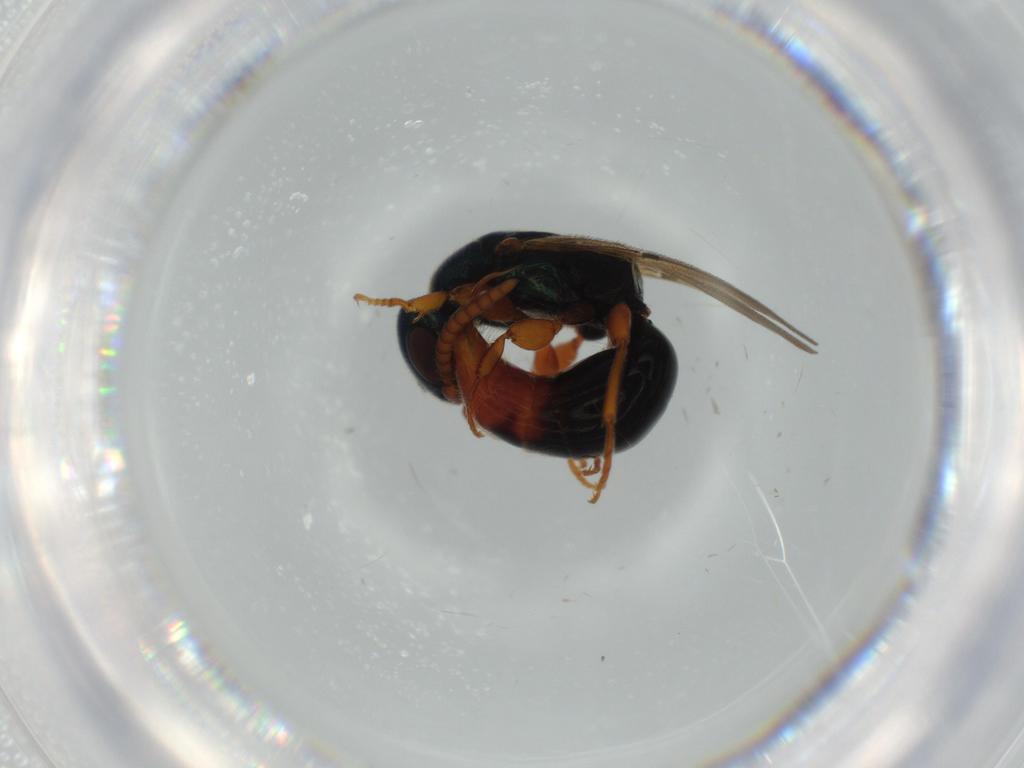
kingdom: Animalia
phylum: Arthropoda
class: Insecta
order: Hymenoptera
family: Bethylidae
